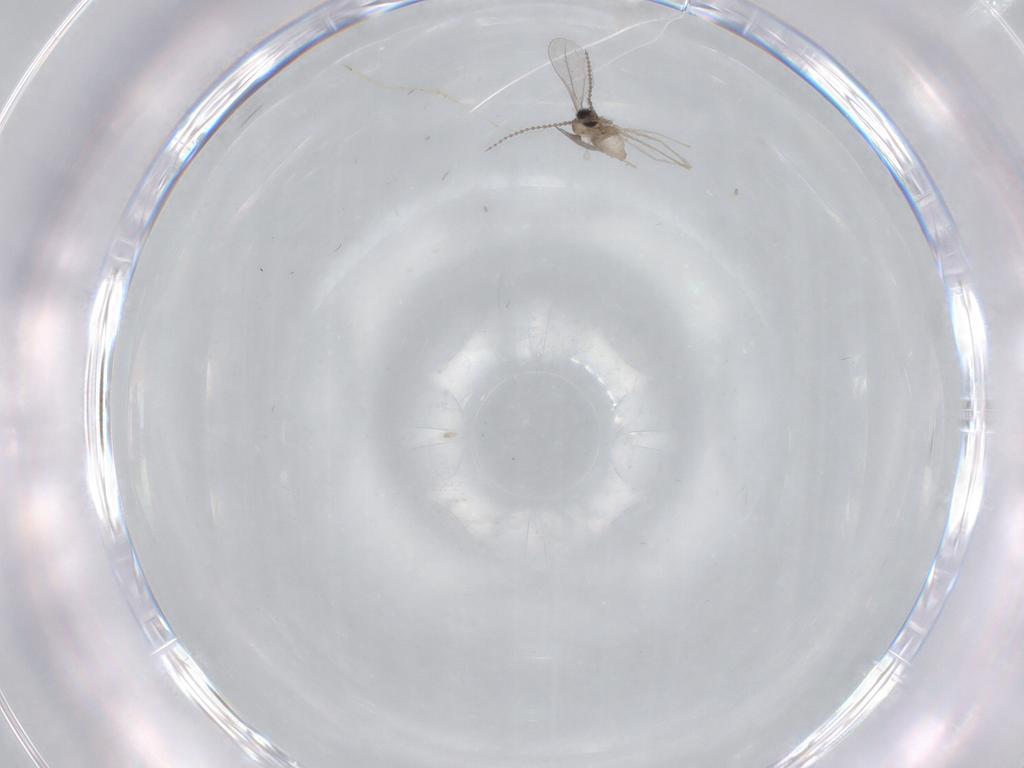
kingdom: Animalia
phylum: Arthropoda
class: Insecta
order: Diptera
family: Cecidomyiidae
